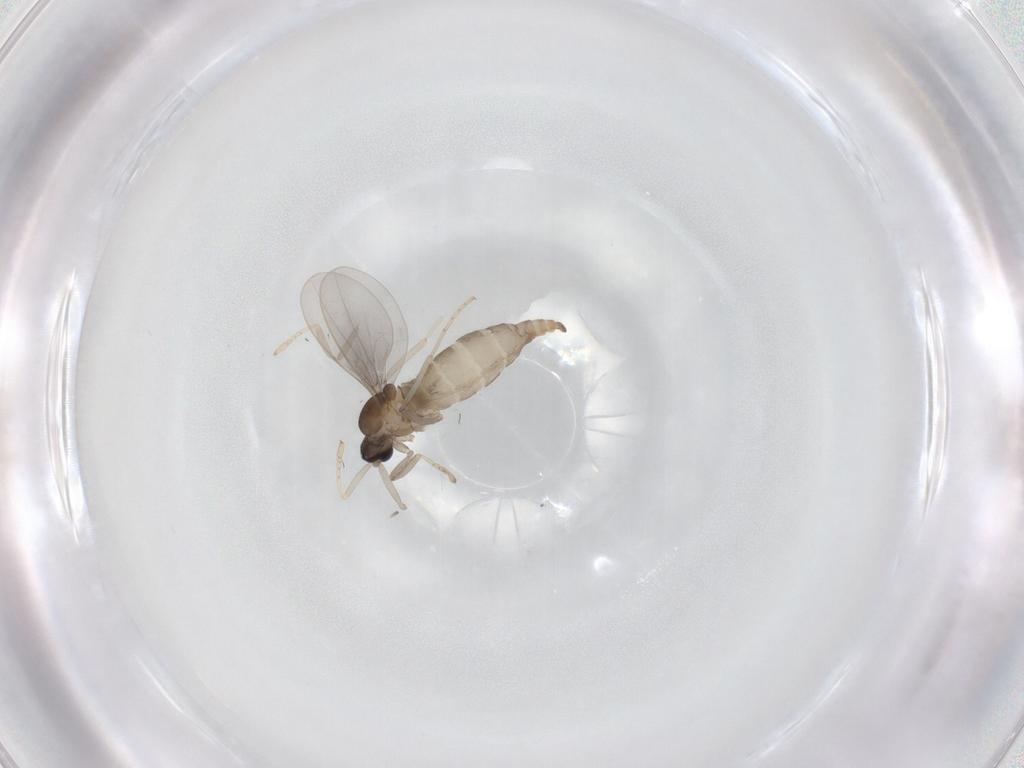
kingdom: Animalia
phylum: Arthropoda
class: Insecta
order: Diptera
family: Cecidomyiidae
